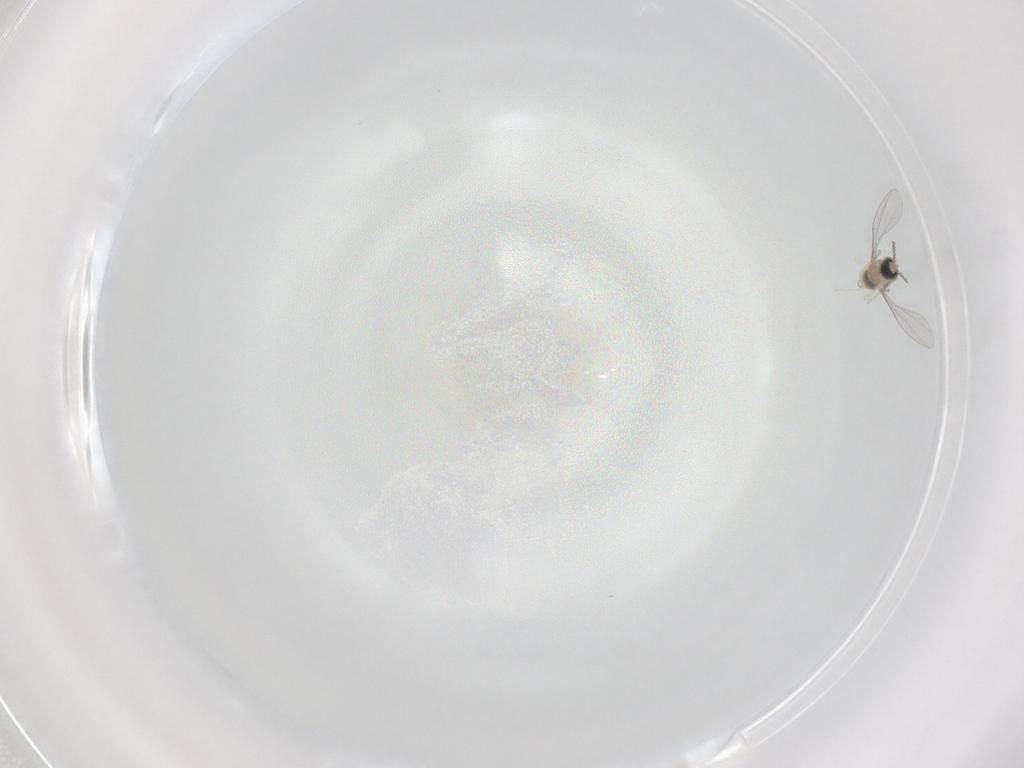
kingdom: Animalia
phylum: Arthropoda
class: Insecta
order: Diptera
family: Cecidomyiidae
